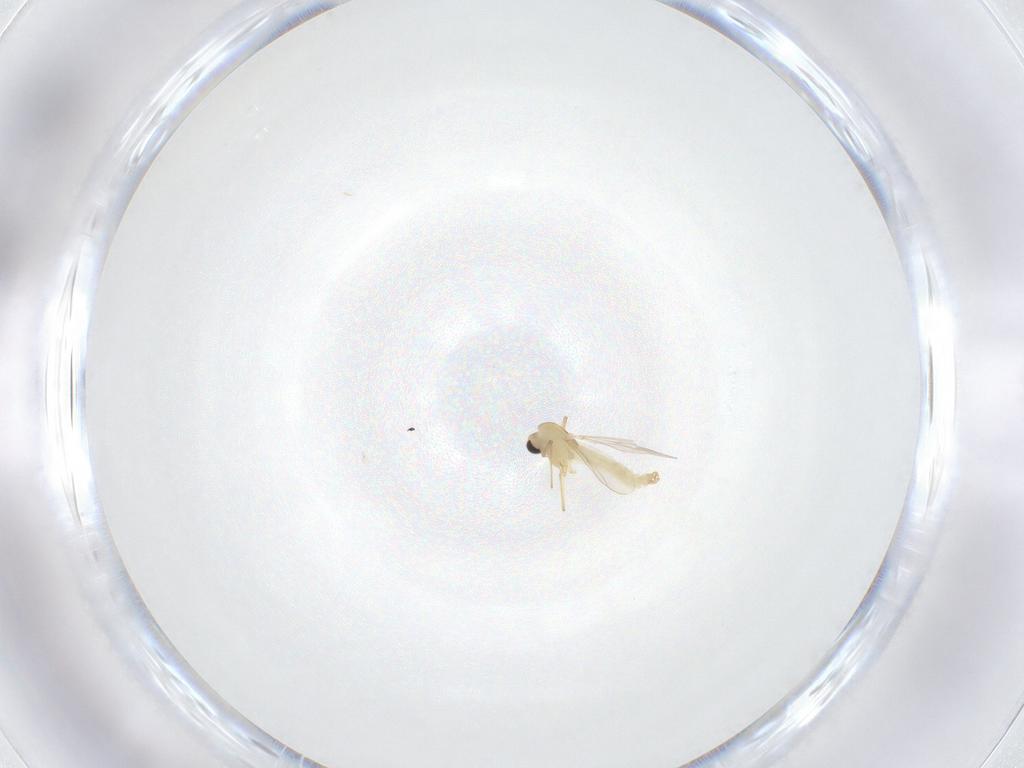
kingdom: Animalia
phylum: Arthropoda
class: Insecta
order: Diptera
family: Chironomidae
